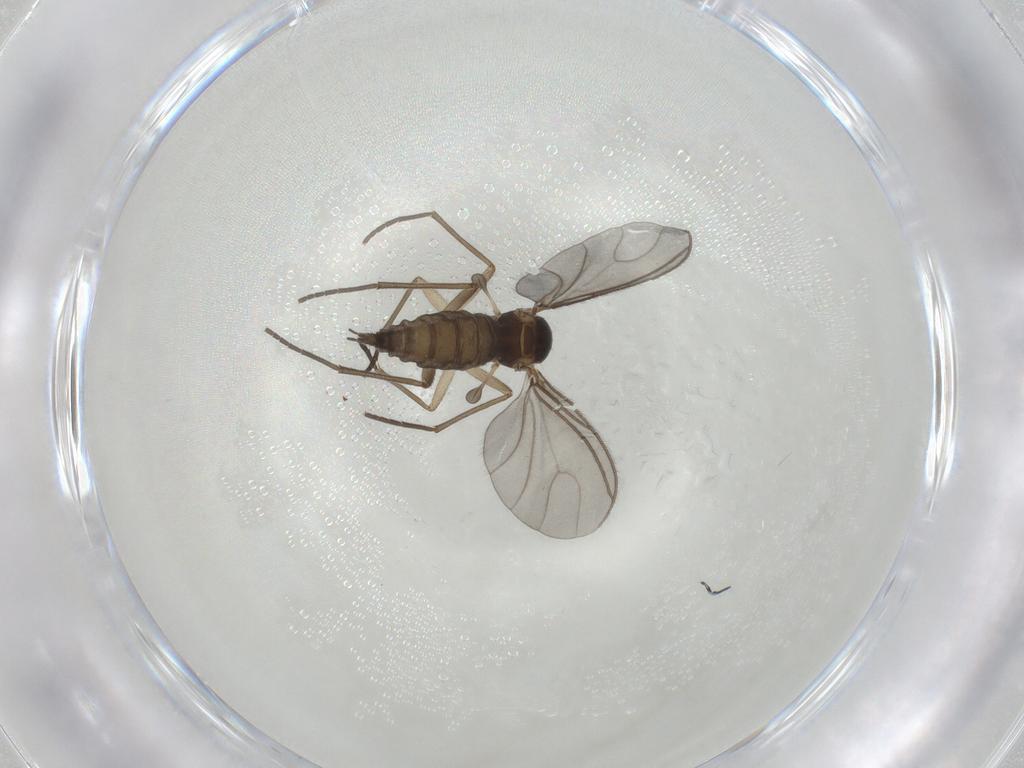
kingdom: Animalia
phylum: Arthropoda
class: Insecta
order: Diptera
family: Sciaridae
